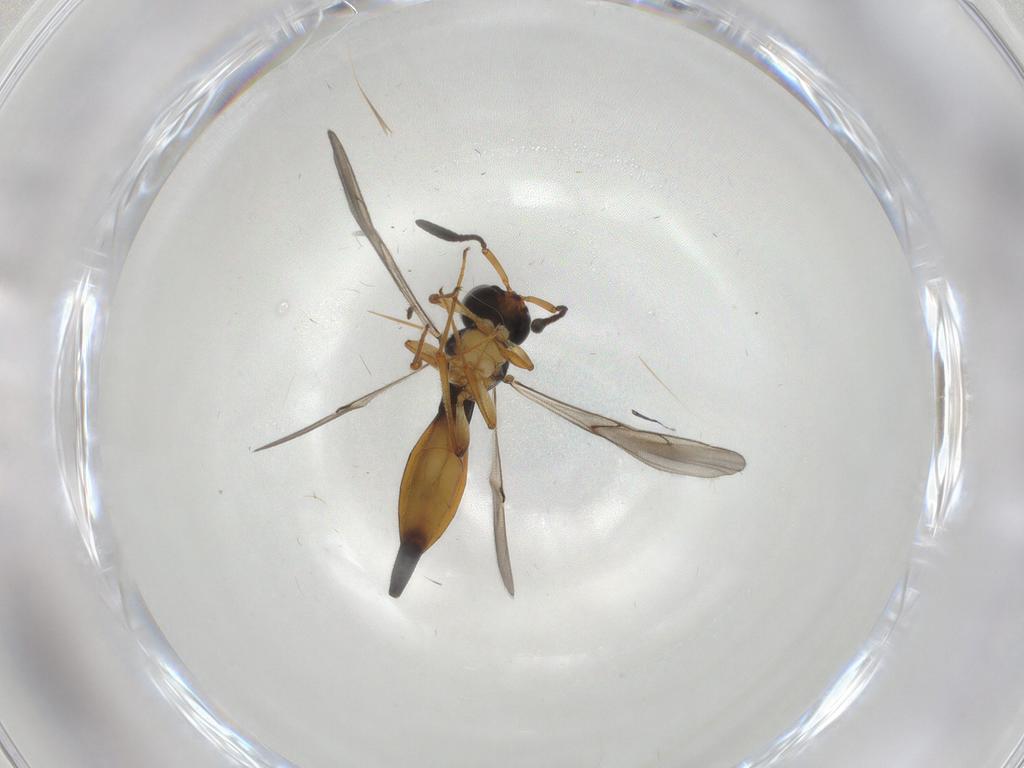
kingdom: Animalia
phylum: Arthropoda
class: Insecta
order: Hymenoptera
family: Scelionidae
